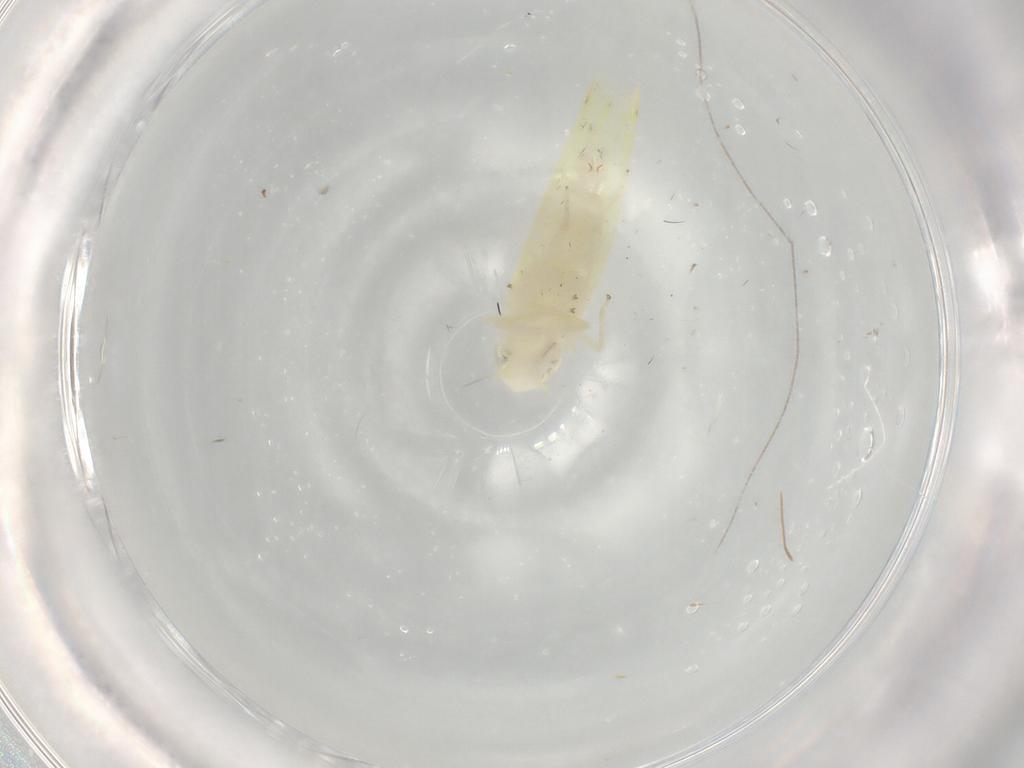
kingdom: Animalia
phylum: Arthropoda
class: Insecta
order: Hemiptera
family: Cicadellidae
